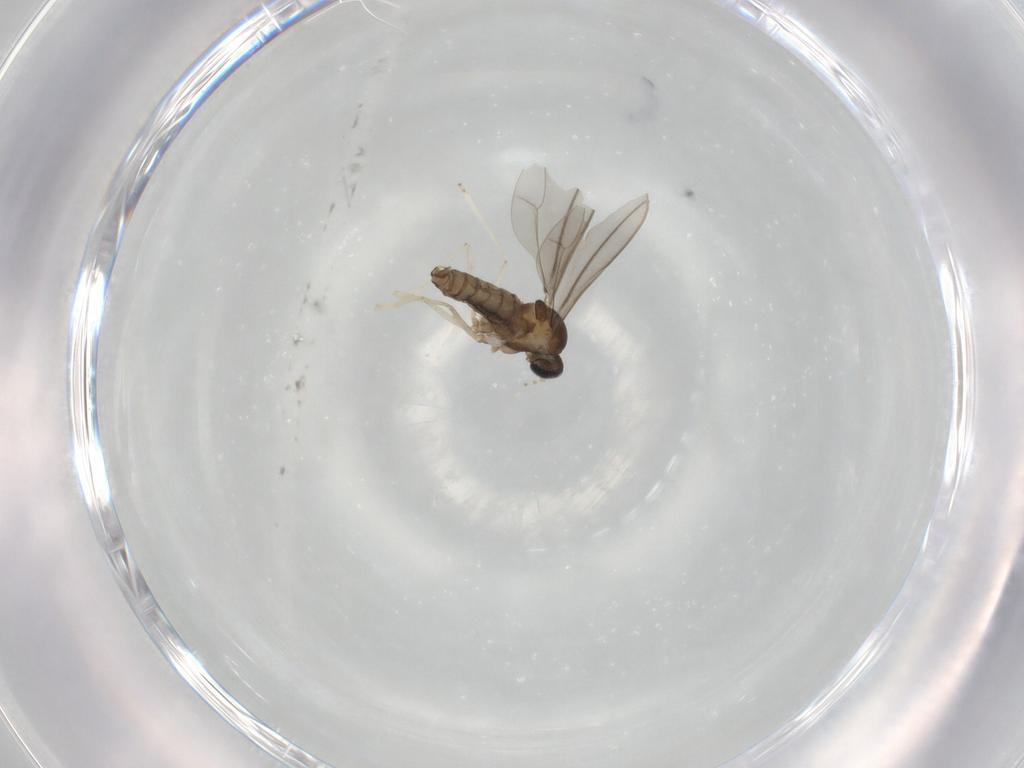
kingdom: Animalia
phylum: Arthropoda
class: Insecta
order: Diptera
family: Cecidomyiidae
